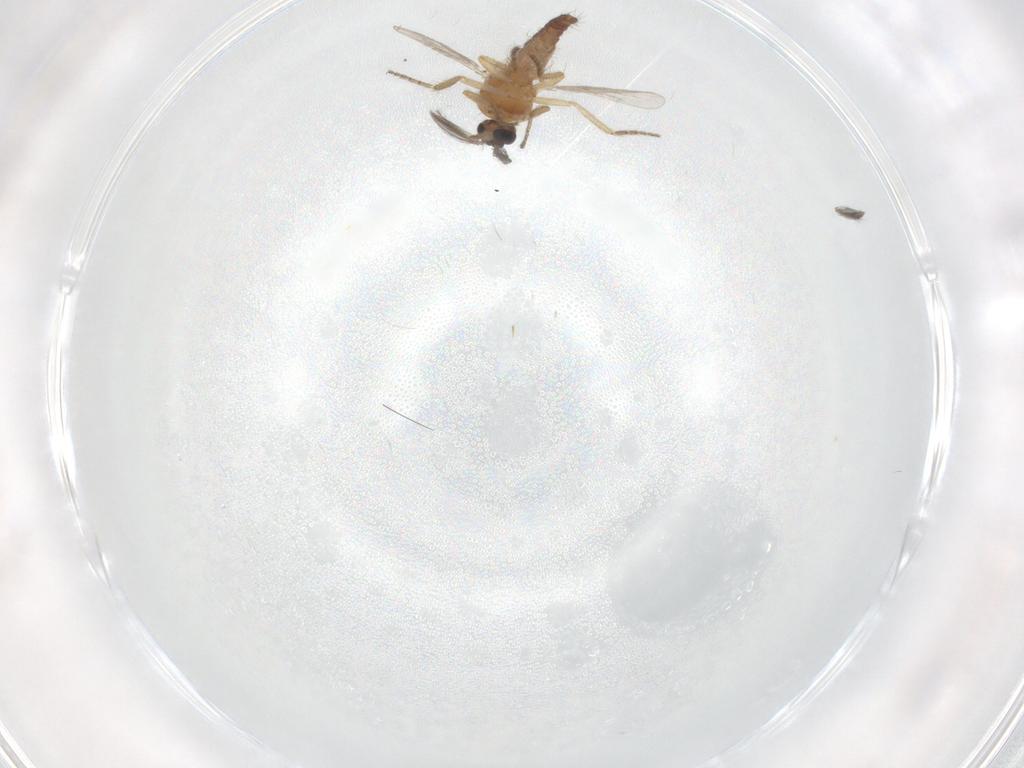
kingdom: Animalia
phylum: Arthropoda
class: Insecta
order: Diptera
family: Ceratopogonidae
